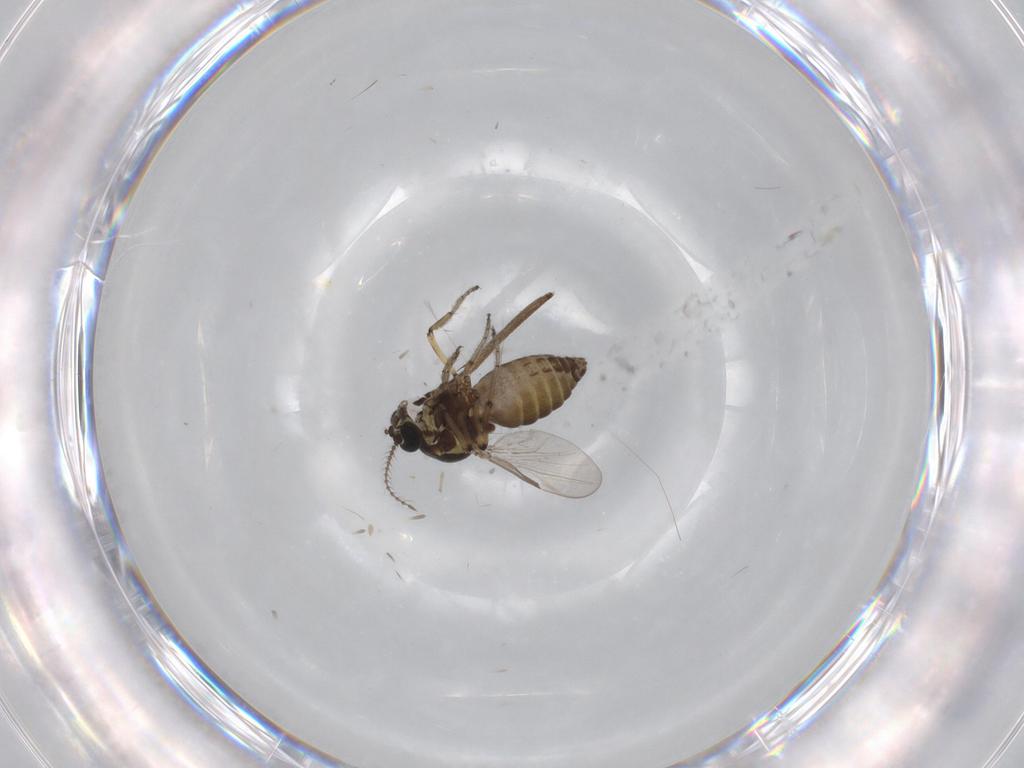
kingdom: Animalia
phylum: Arthropoda
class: Insecta
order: Diptera
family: Ceratopogonidae
